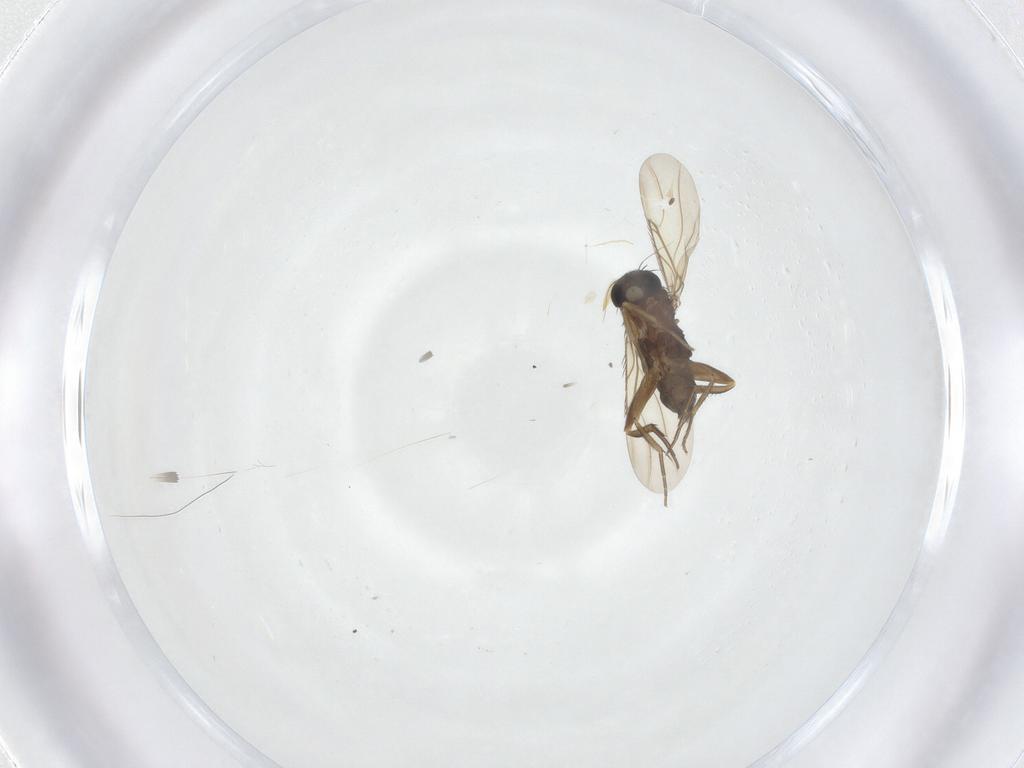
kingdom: Animalia
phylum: Arthropoda
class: Insecta
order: Diptera
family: Phoridae
